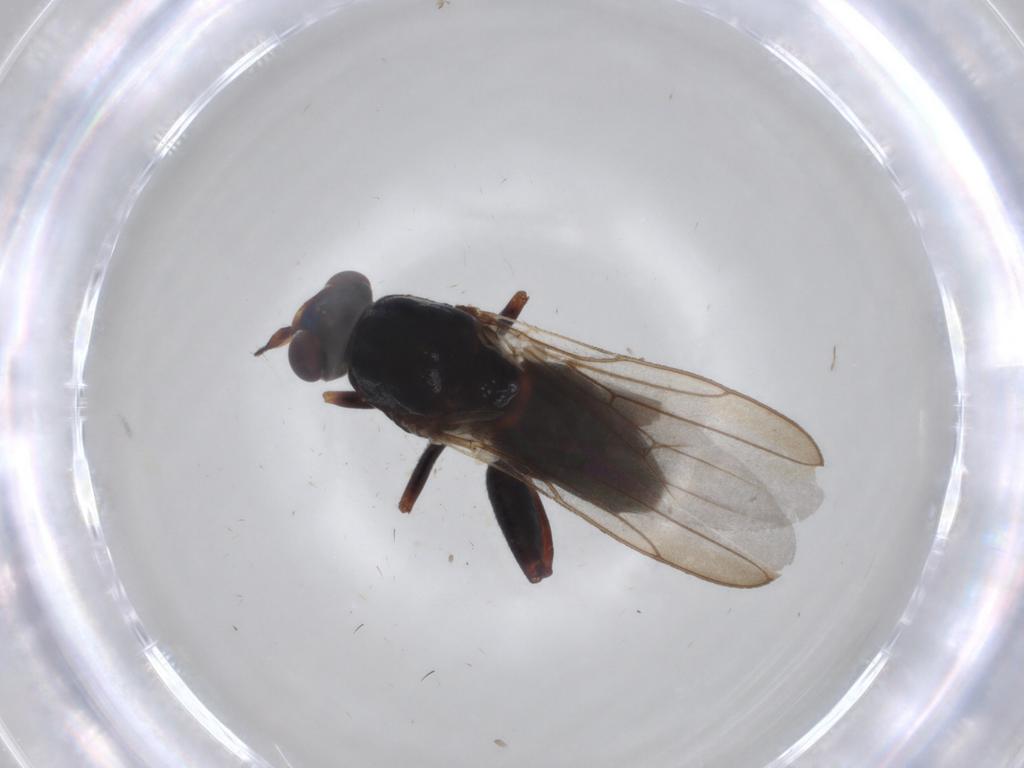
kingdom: Animalia
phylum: Arthropoda
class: Insecta
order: Diptera
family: Chloropidae
